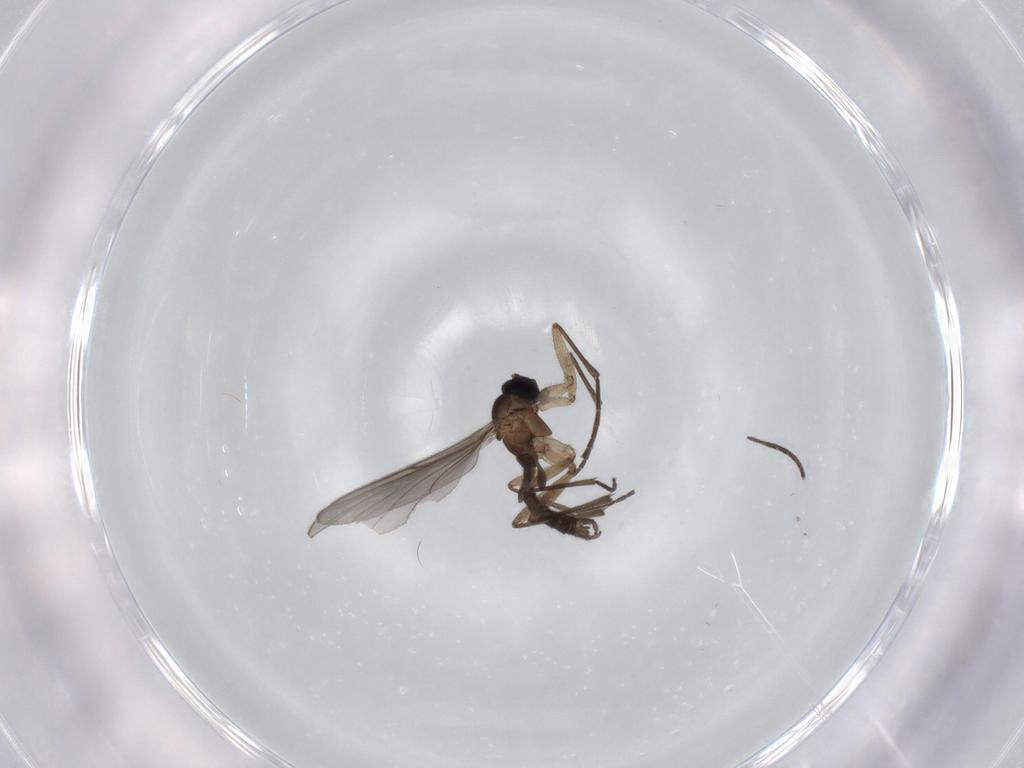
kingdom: Animalia
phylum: Arthropoda
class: Insecta
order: Diptera
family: Sciaridae
